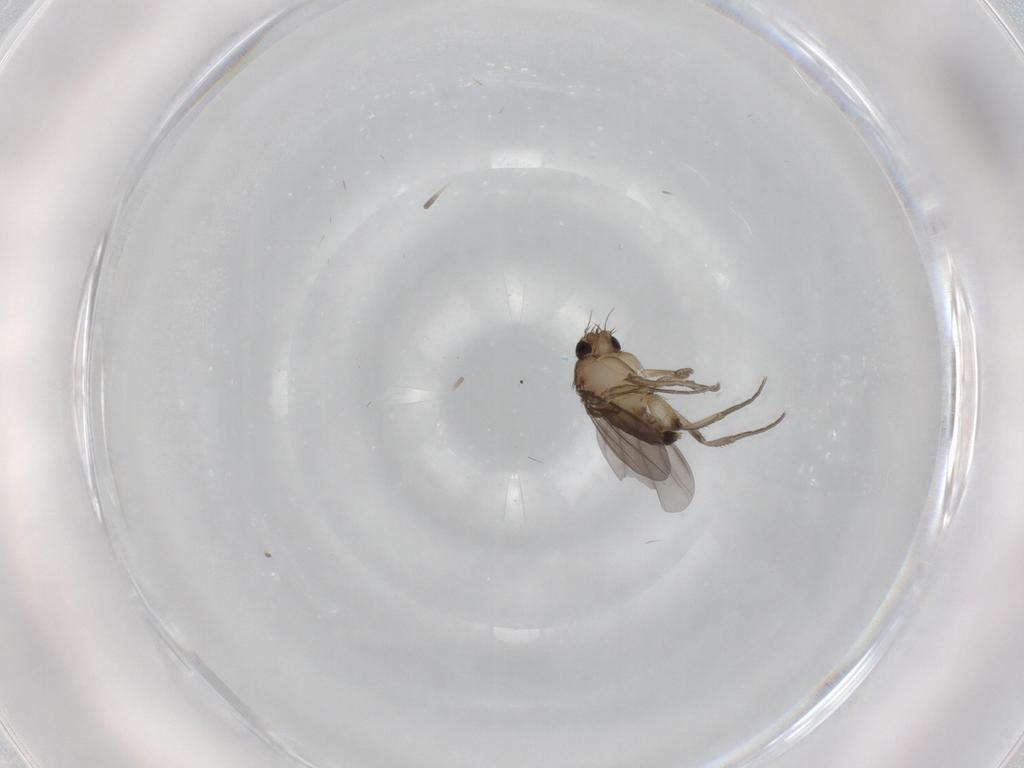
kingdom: Animalia
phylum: Arthropoda
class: Insecta
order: Diptera
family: Phoridae
